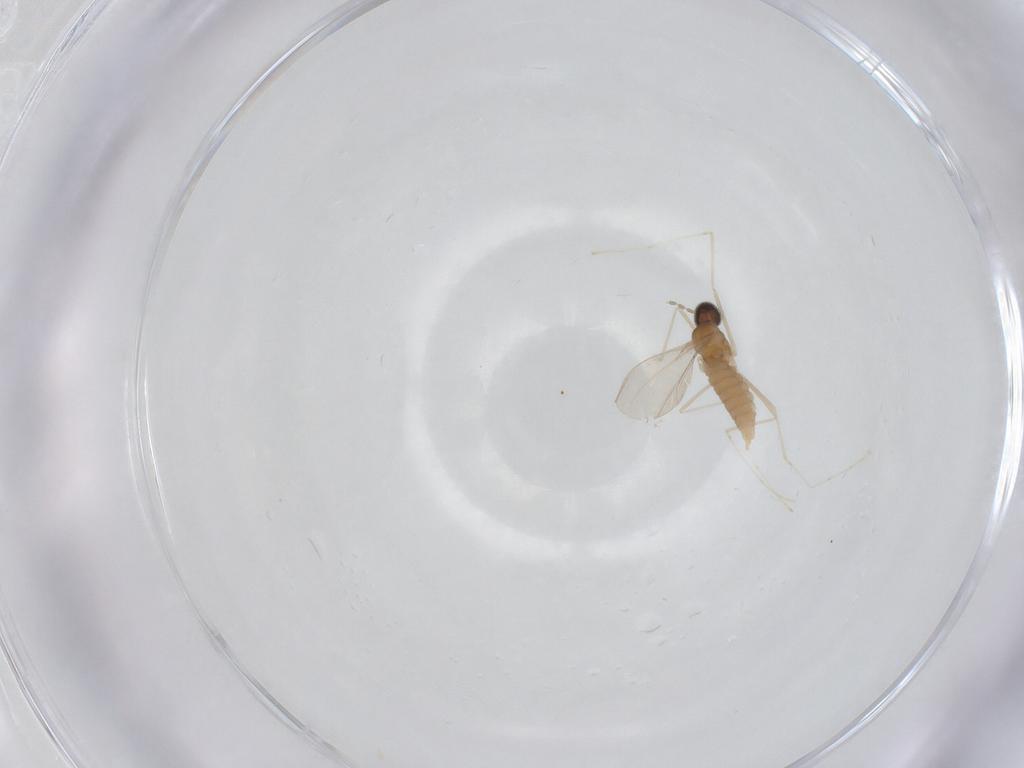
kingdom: Animalia
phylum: Arthropoda
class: Insecta
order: Diptera
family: Cecidomyiidae
